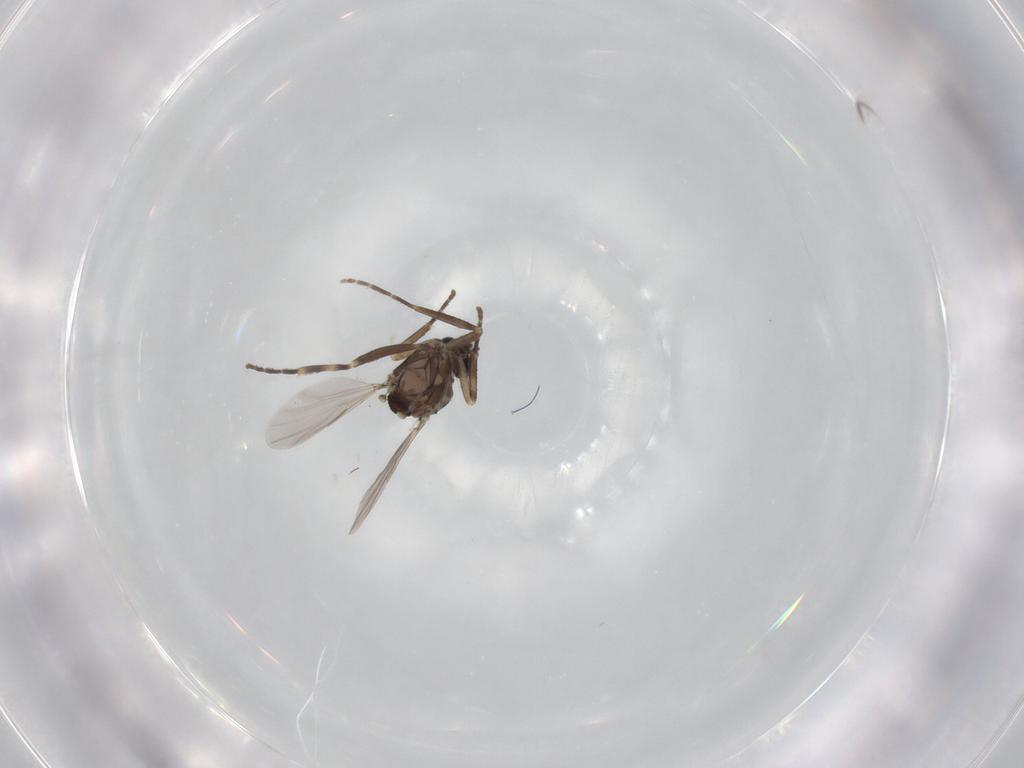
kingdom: Animalia
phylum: Arthropoda
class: Insecta
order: Diptera
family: Ceratopogonidae
